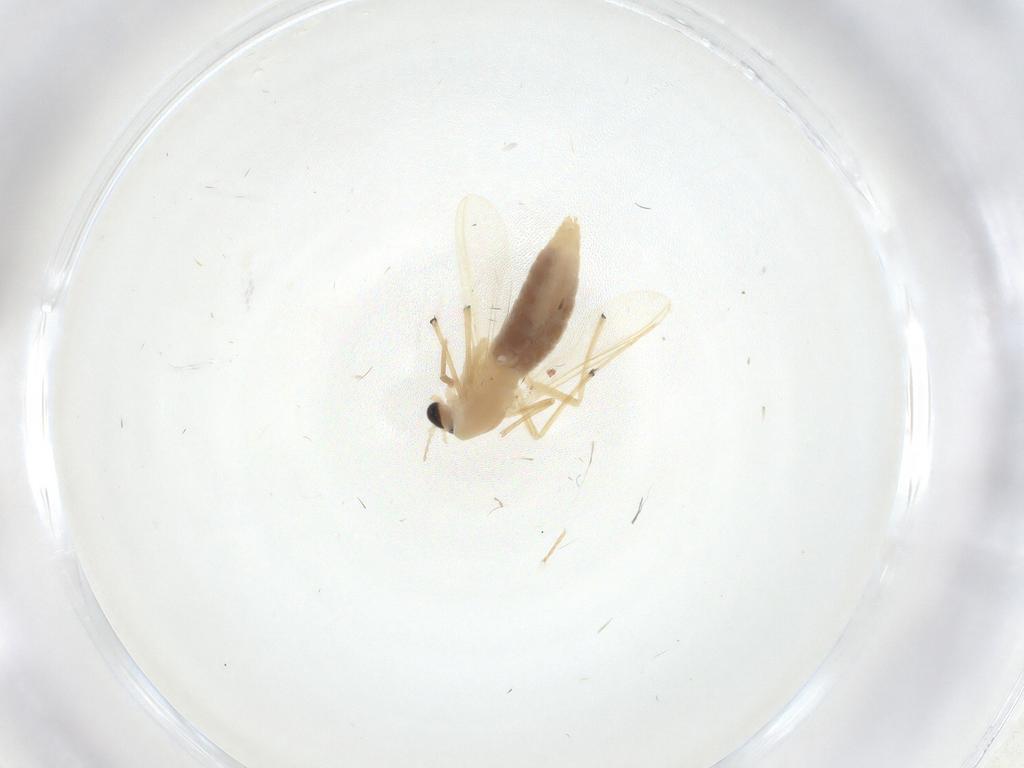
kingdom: Animalia
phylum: Arthropoda
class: Insecta
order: Diptera
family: Chironomidae
